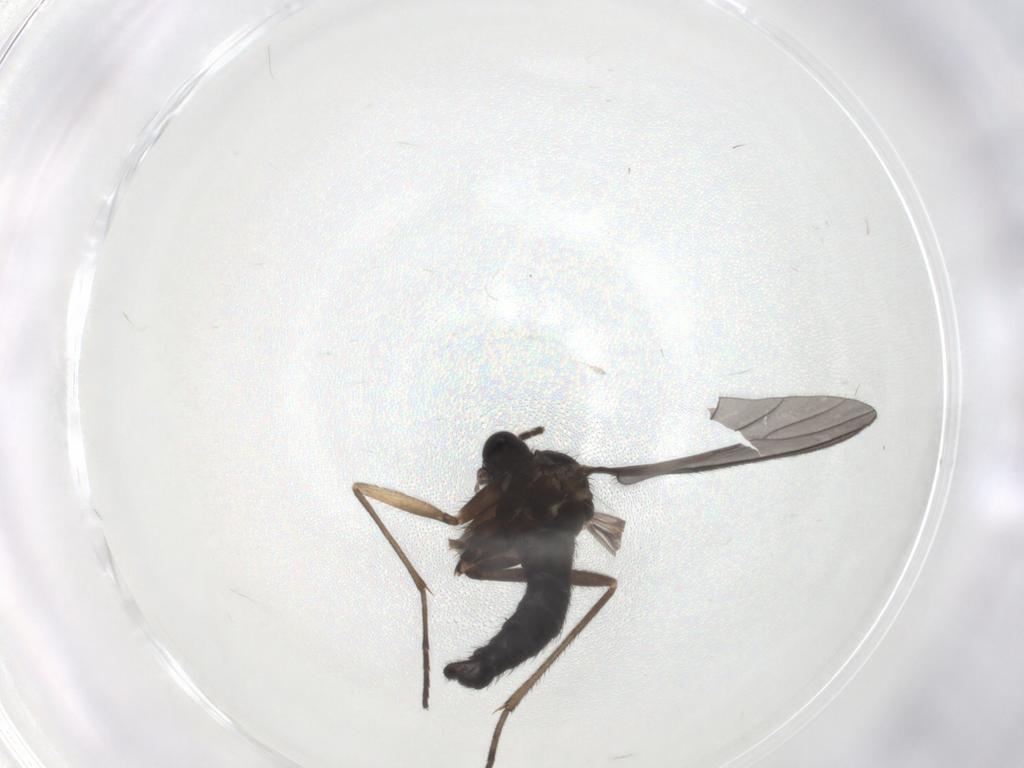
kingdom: Animalia
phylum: Arthropoda
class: Insecta
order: Diptera
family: Sciaridae
